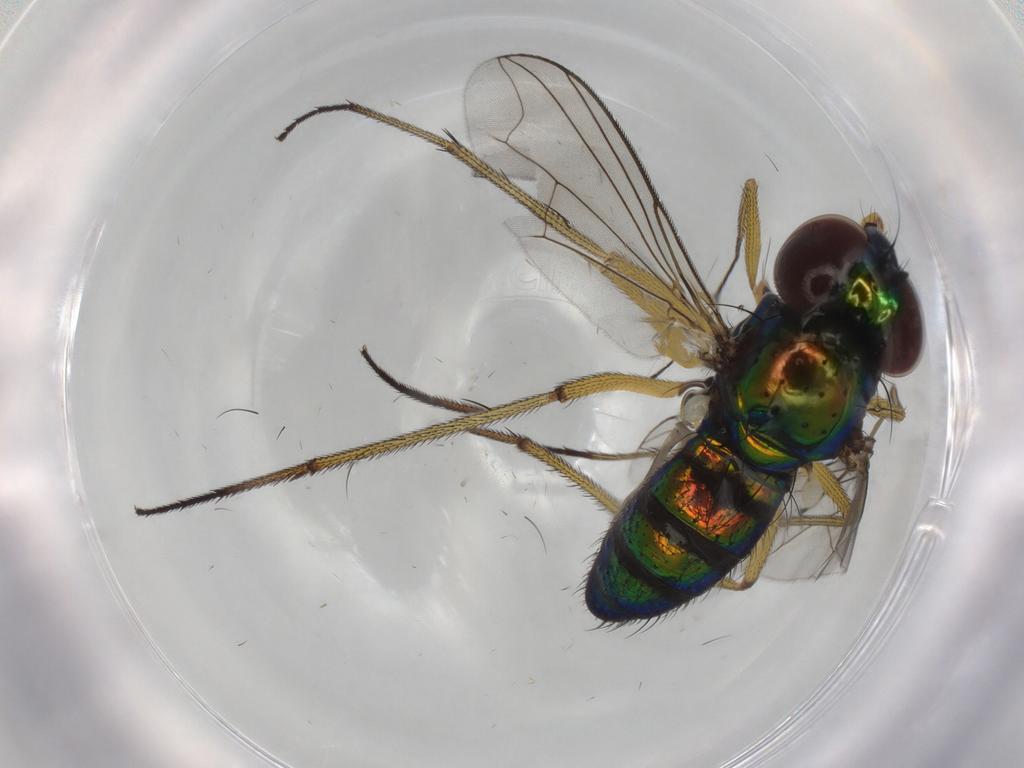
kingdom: Animalia
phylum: Arthropoda
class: Insecta
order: Diptera
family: Dolichopodidae
